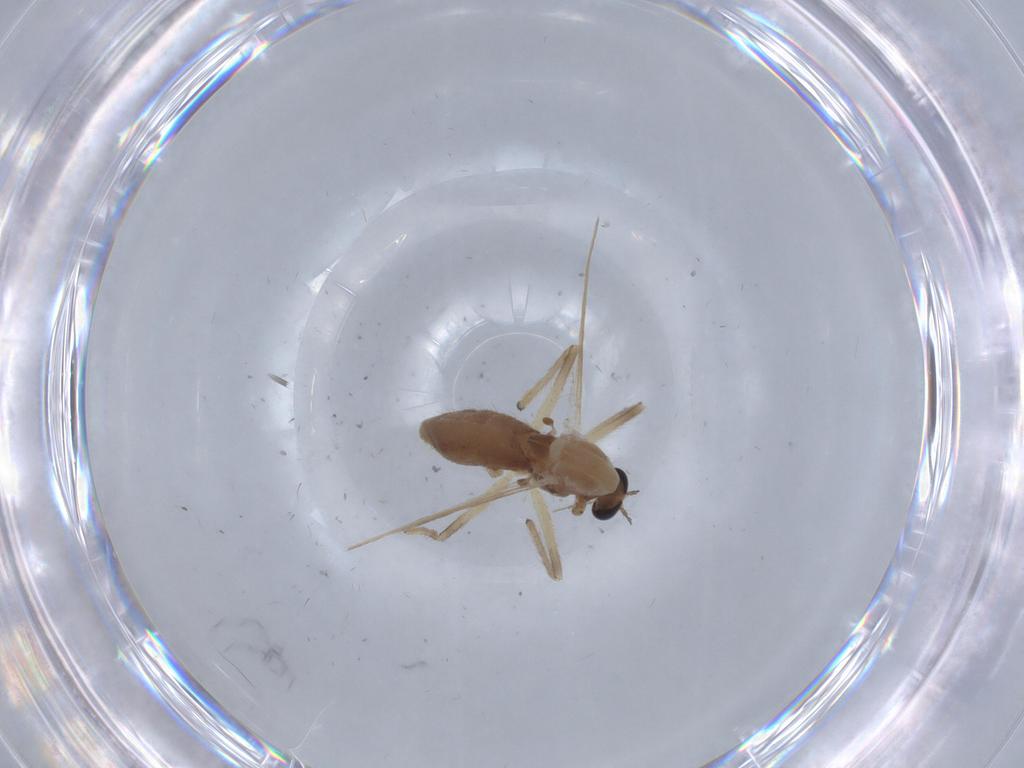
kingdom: Animalia
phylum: Arthropoda
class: Insecta
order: Diptera
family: Chironomidae
